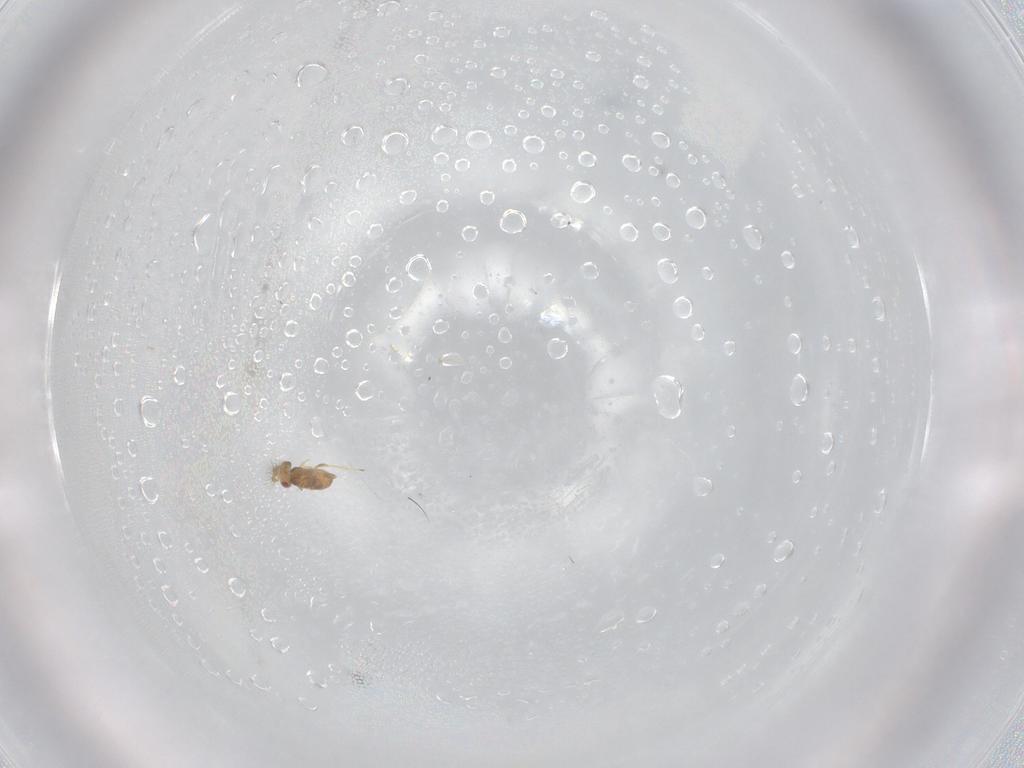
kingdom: Animalia
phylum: Arthropoda
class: Insecta
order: Hymenoptera
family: Trichogrammatidae
